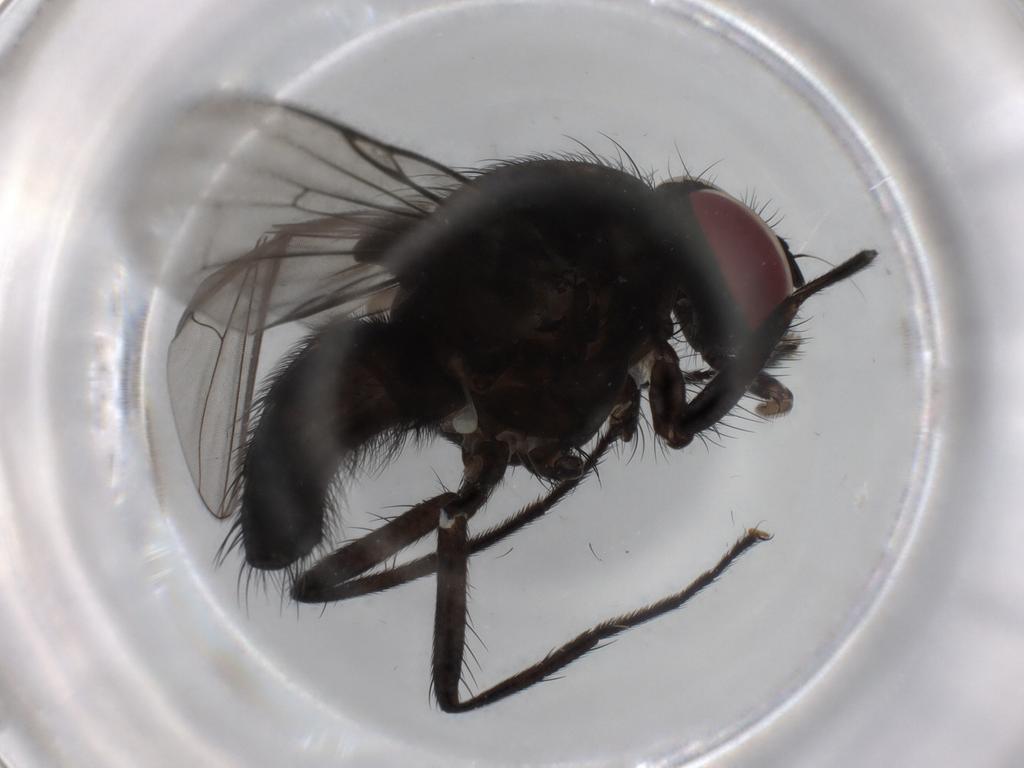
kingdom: Animalia
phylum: Arthropoda
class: Insecta
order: Diptera
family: Muscidae
